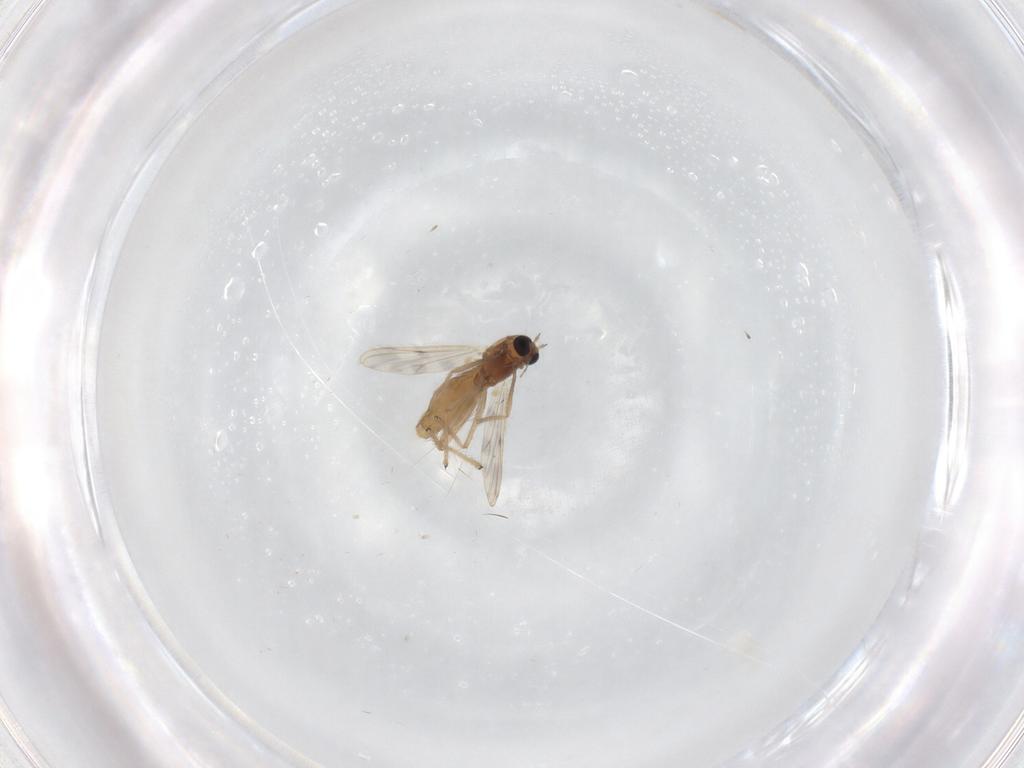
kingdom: Animalia
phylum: Arthropoda
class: Insecta
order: Diptera
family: Chironomidae
